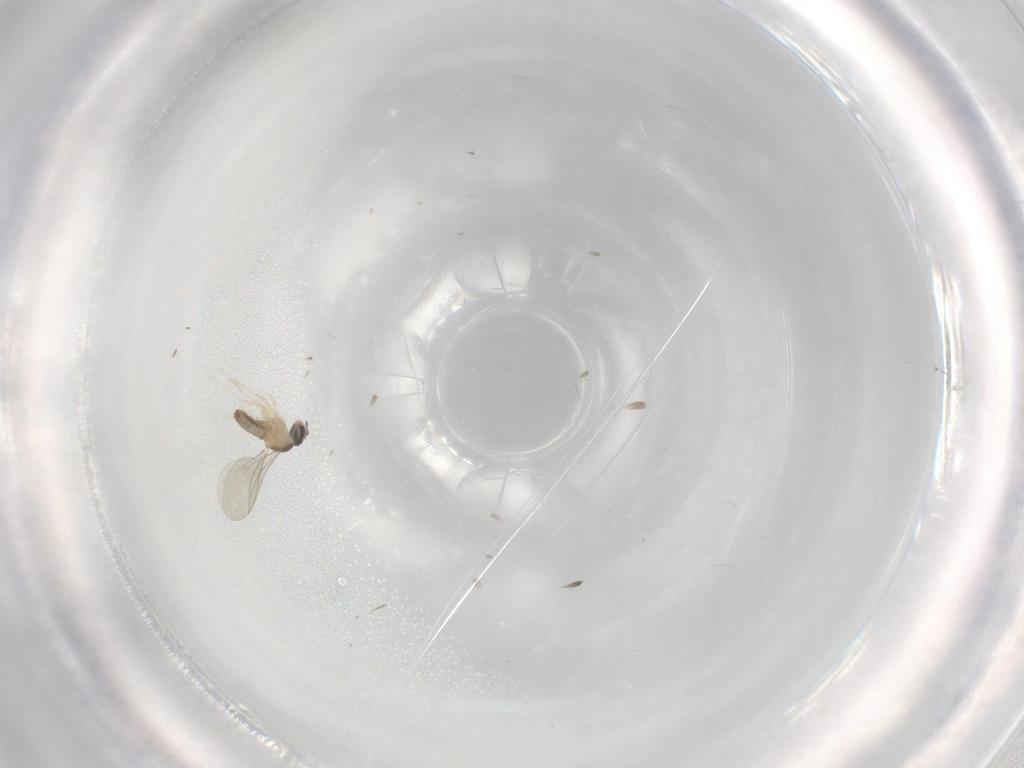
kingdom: Animalia
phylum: Arthropoda
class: Insecta
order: Diptera
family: Cecidomyiidae
